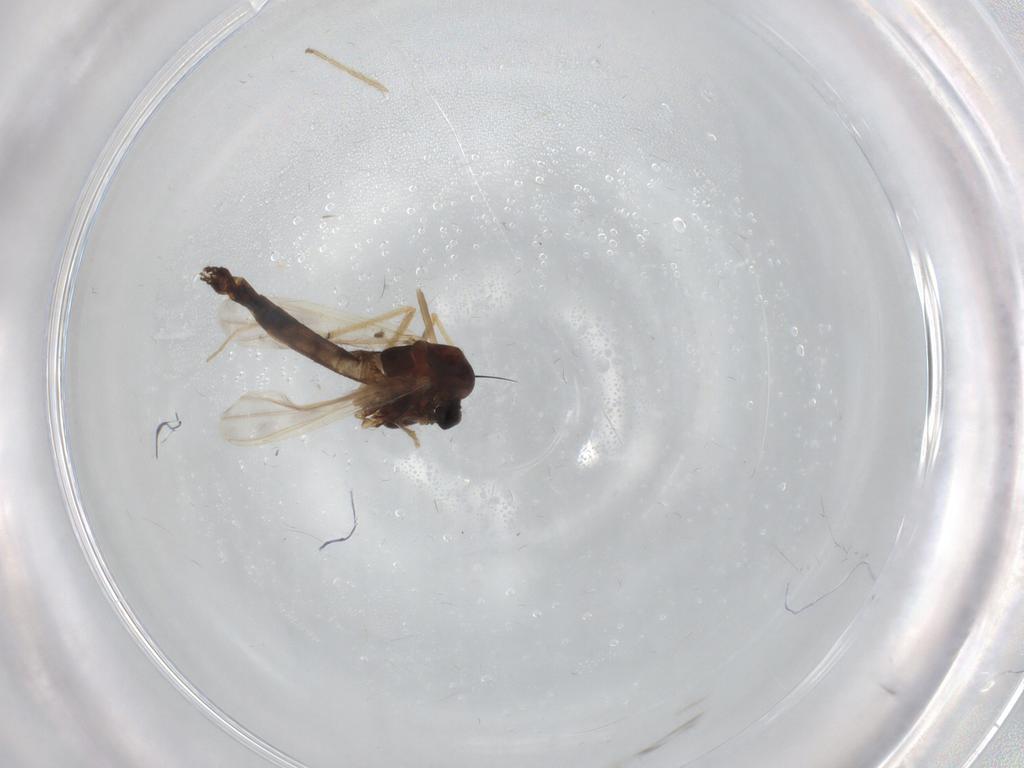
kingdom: Animalia
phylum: Arthropoda
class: Insecta
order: Diptera
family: Chironomidae
